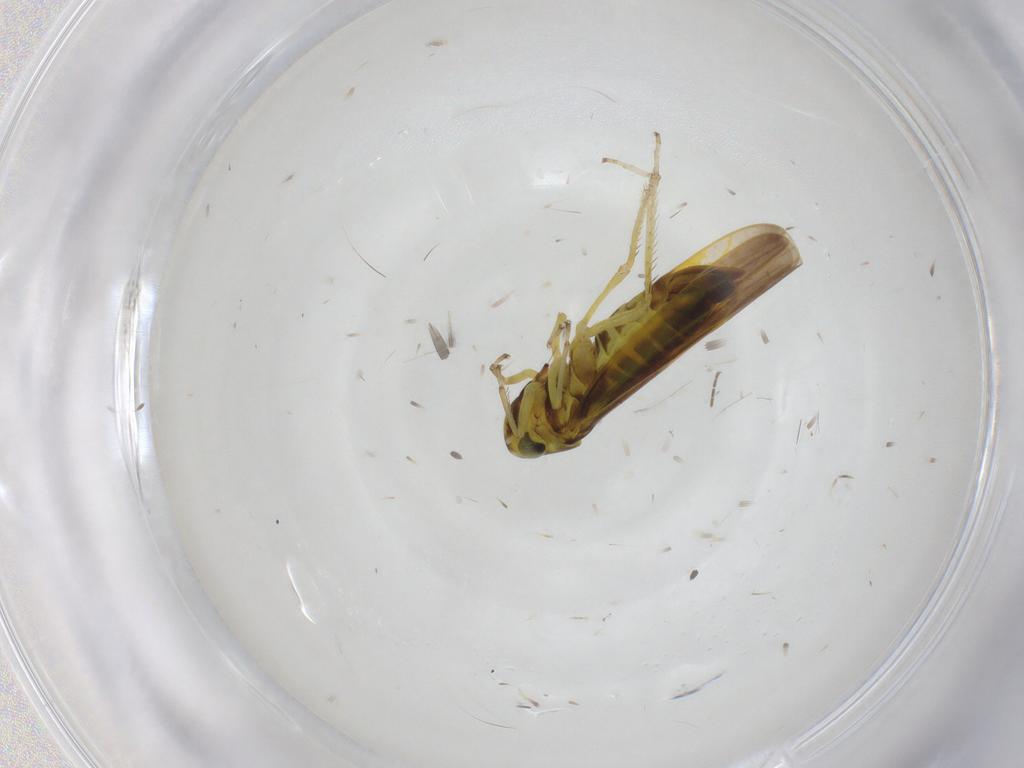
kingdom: Animalia
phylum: Arthropoda
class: Insecta
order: Hemiptera
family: Cicadellidae
